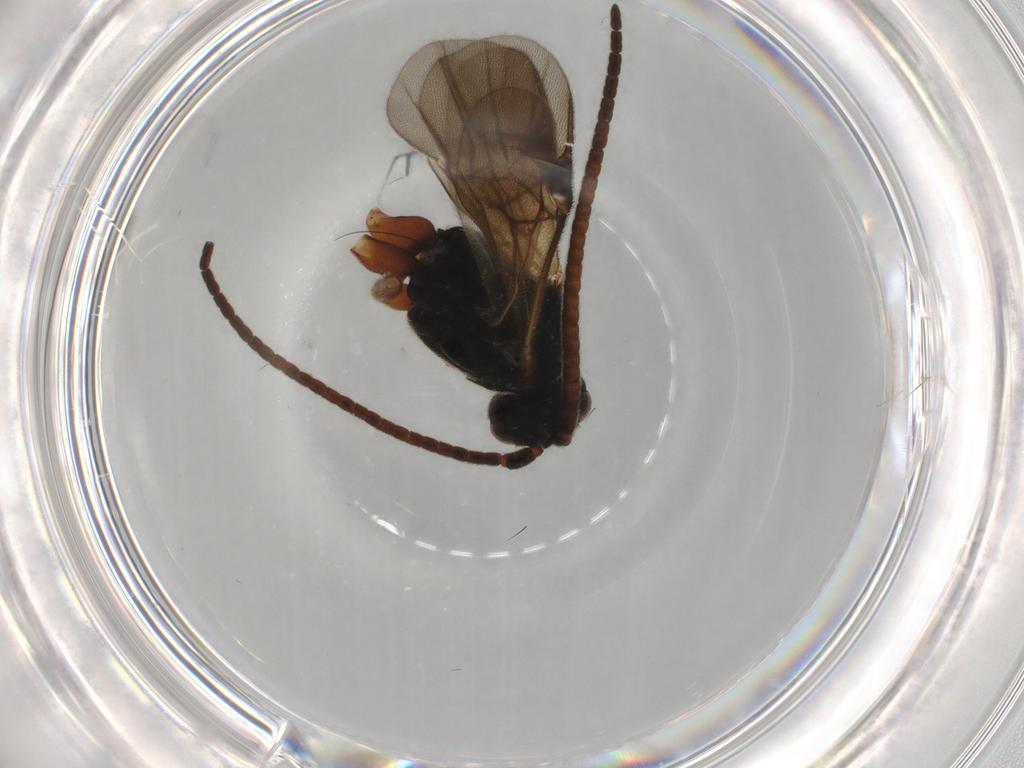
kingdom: Animalia
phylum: Arthropoda
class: Insecta
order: Hymenoptera
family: Braconidae
